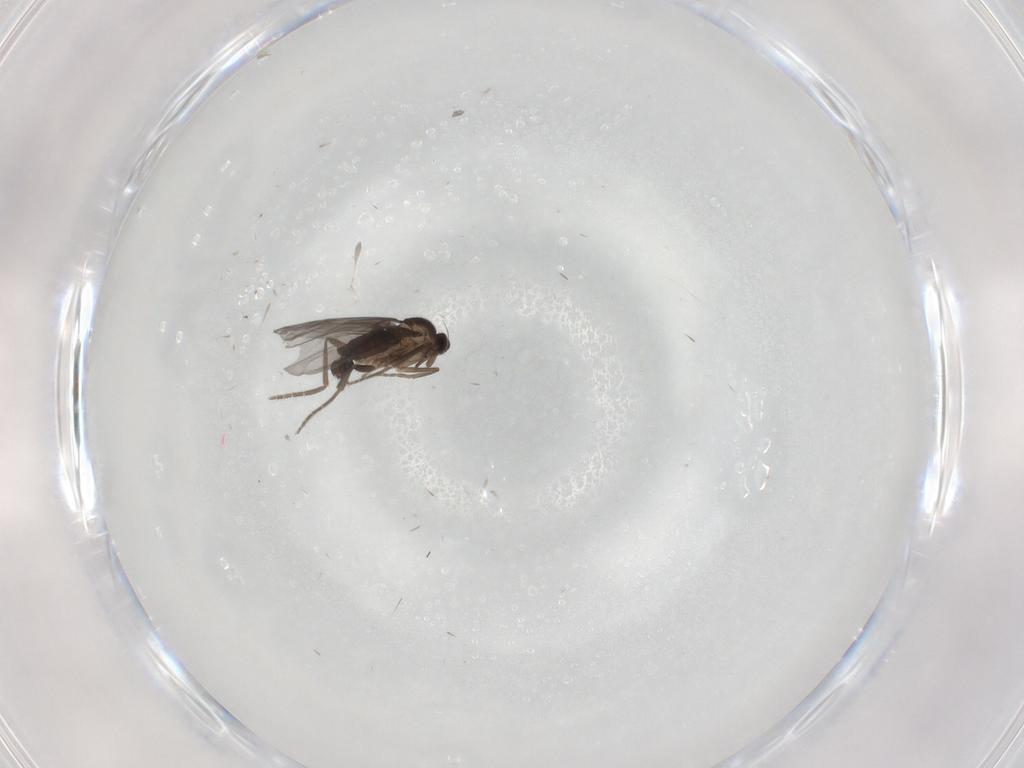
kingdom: Animalia
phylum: Arthropoda
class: Insecta
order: Diptera
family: Phoridae
